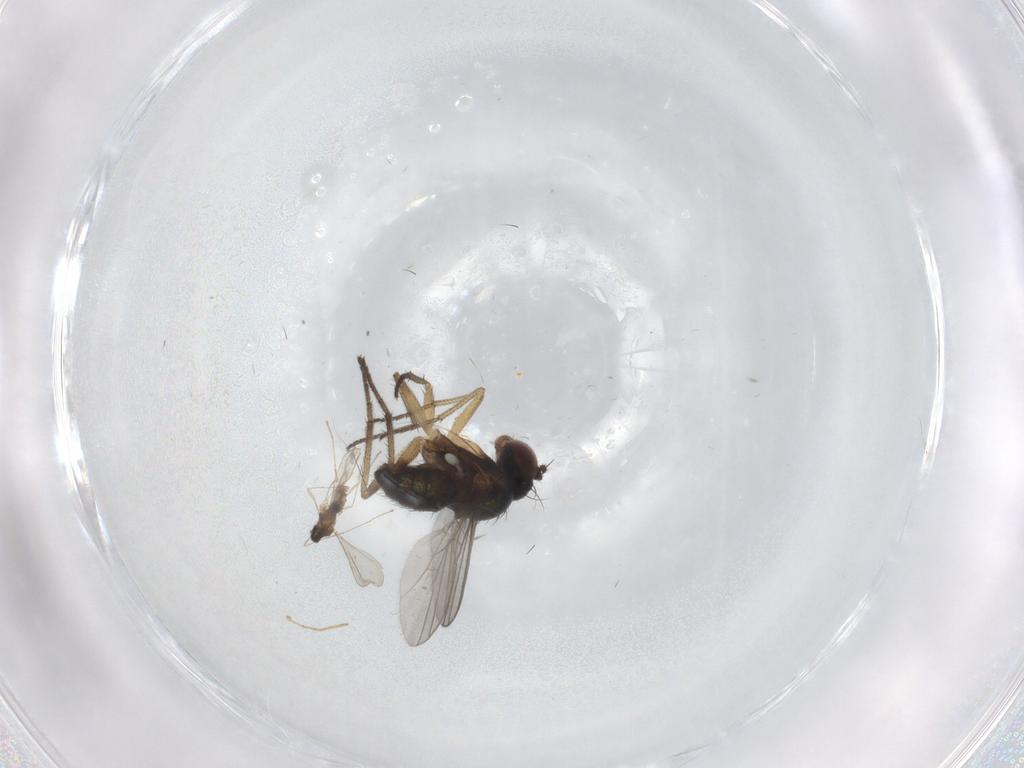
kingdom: Animalia
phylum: Arthropoda
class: Insecta
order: Diptera
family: Dolichopodidae
